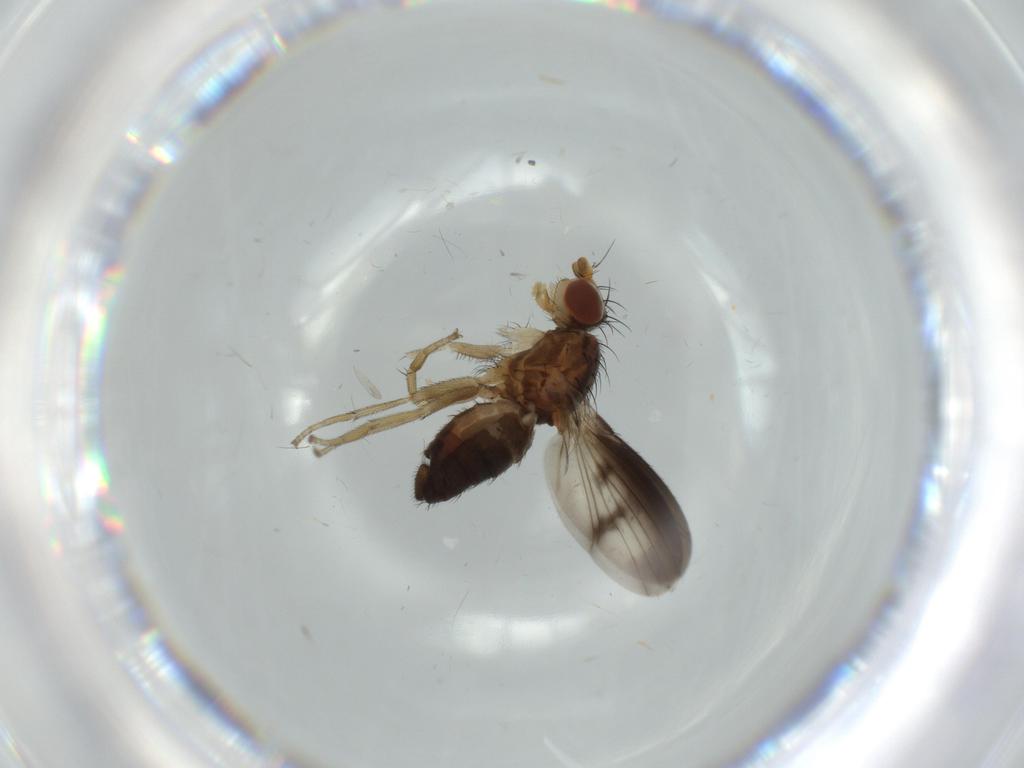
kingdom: Animalia
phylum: Arthropoda
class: Insecta
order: Diptera
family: Heleomyzidae
